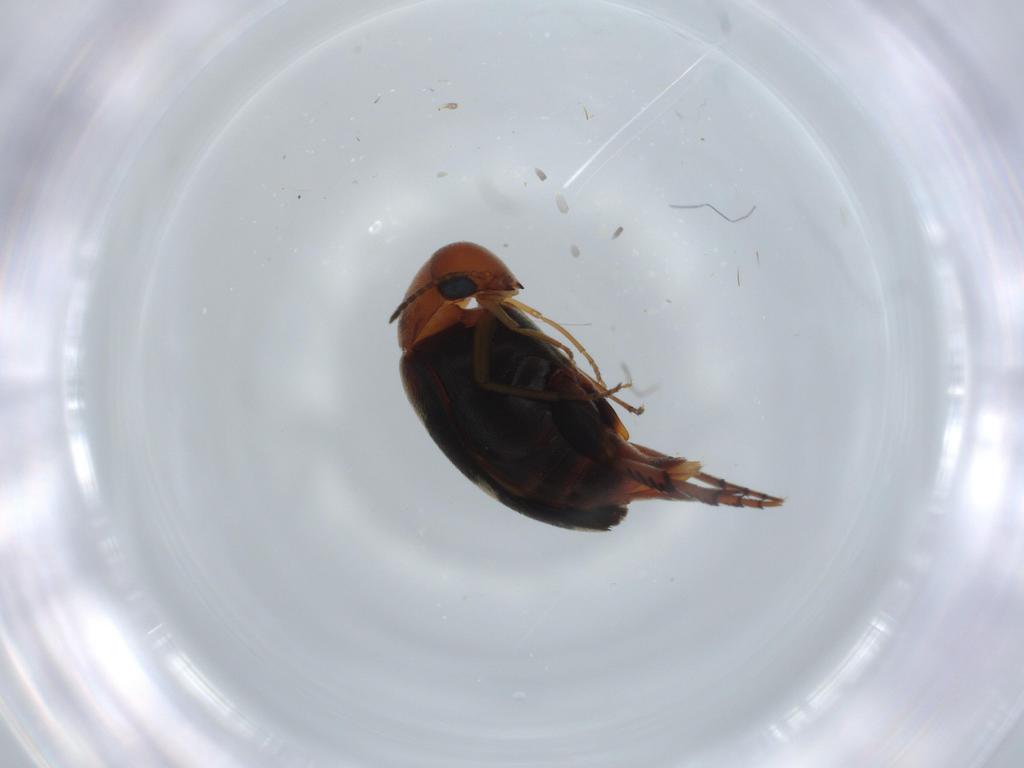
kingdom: Animalia
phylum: Arthropoda
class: Insecta
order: Coleoptera
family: Mordellidae
